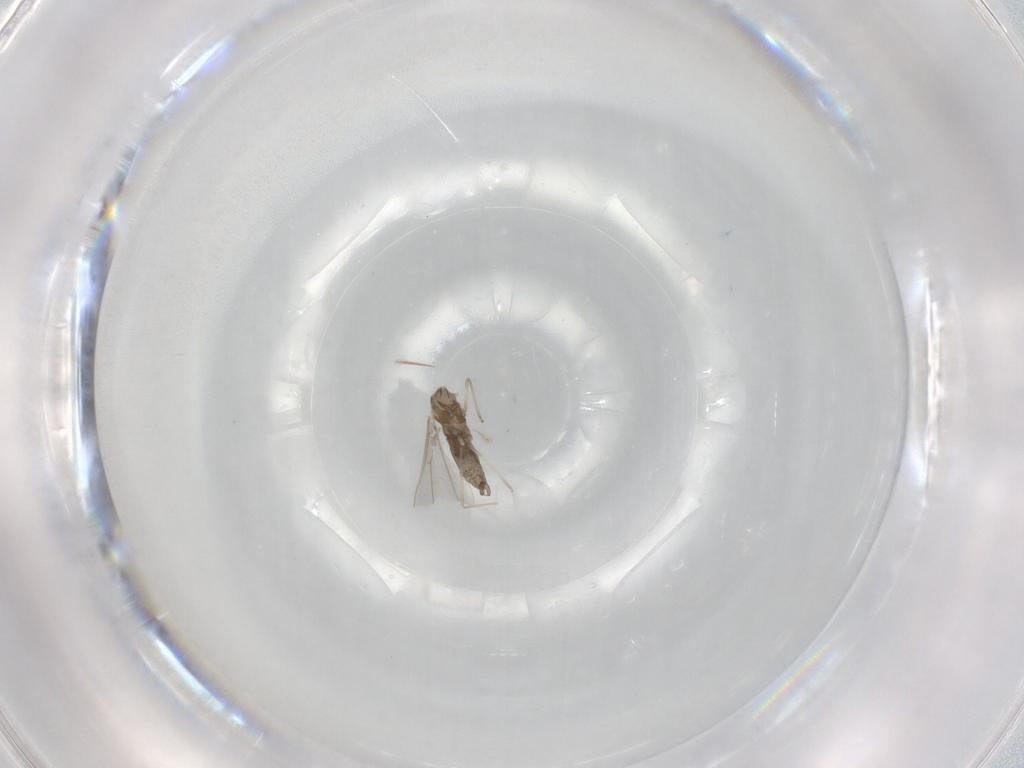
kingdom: Animalia
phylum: Arthropoda
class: Insecta
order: Diptera
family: Cecidomyiidae
